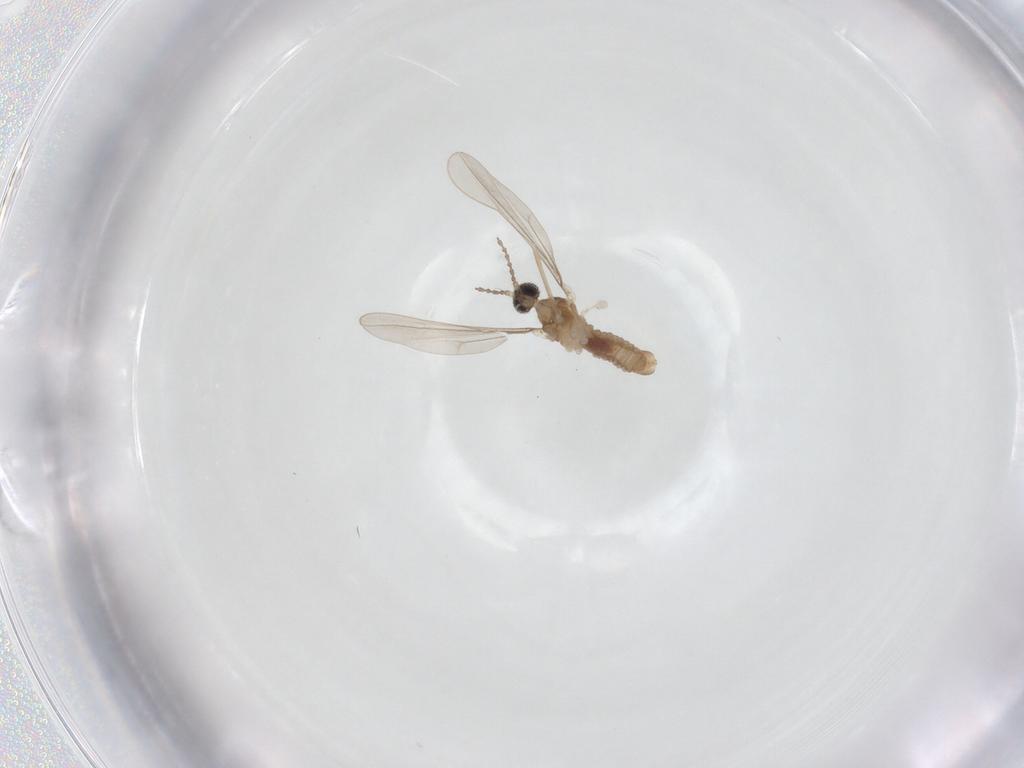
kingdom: Animalia
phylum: Arthropoda
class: Insecta
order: Diptera
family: Cecidomyiidae
